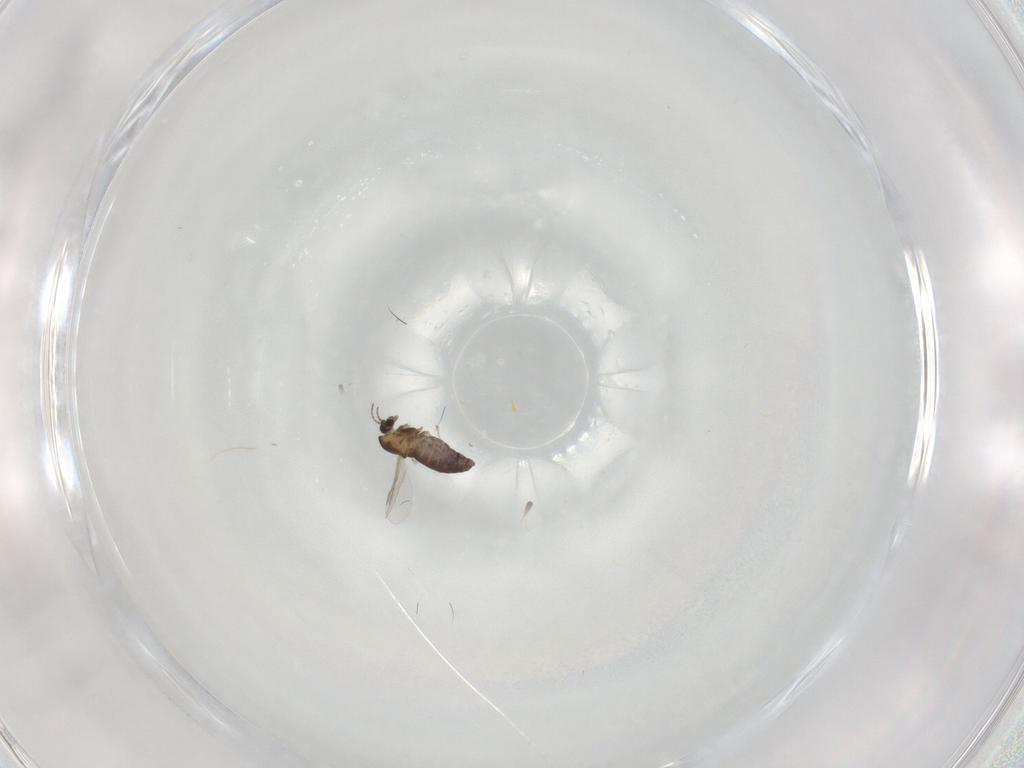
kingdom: Animalia
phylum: Arthropoda
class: Insecta
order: Diptera
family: Chironomidae
